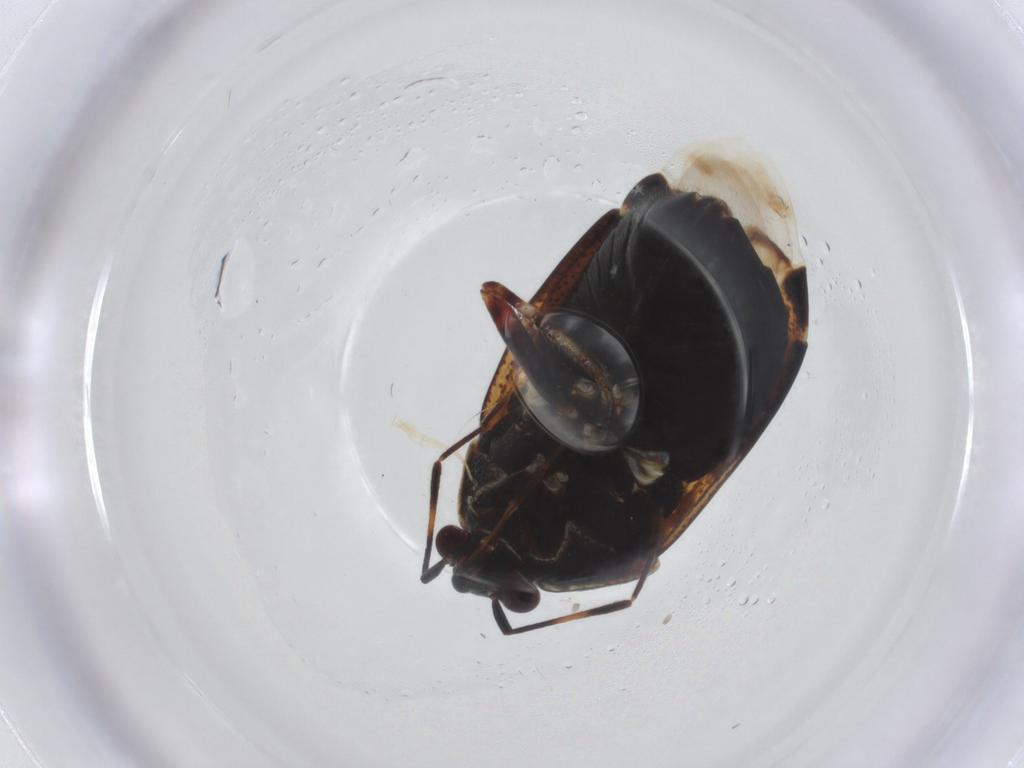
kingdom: Animalia
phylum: Arthropoda
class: Insecta
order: Hemiptera
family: Miridae
